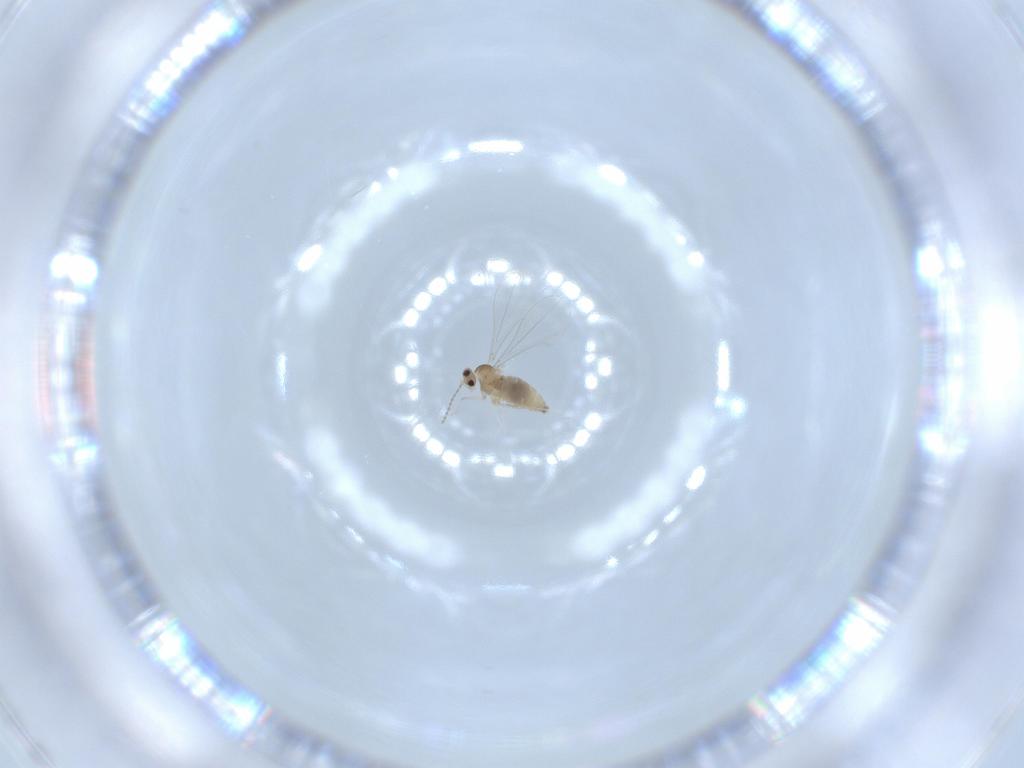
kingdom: Animalia
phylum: Arthropoda
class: Insecta
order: Diptera
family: Cecidomyiidae
